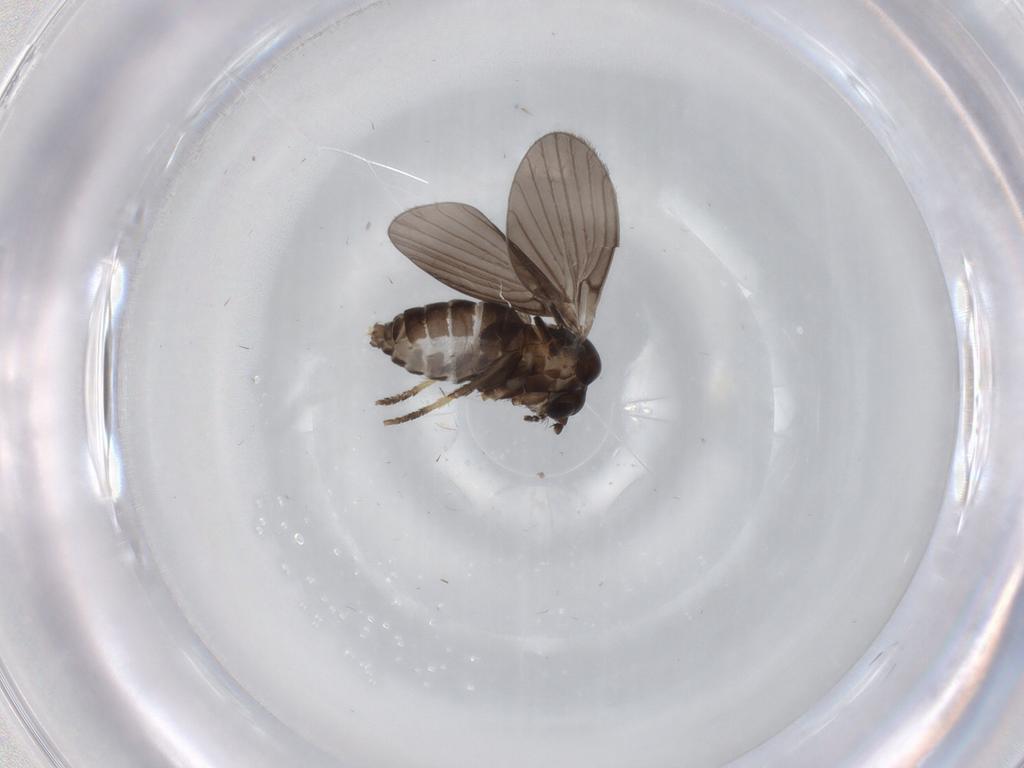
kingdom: Animalia
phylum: Arthropoda
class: Insecta
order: Diptera
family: Psychodidae
